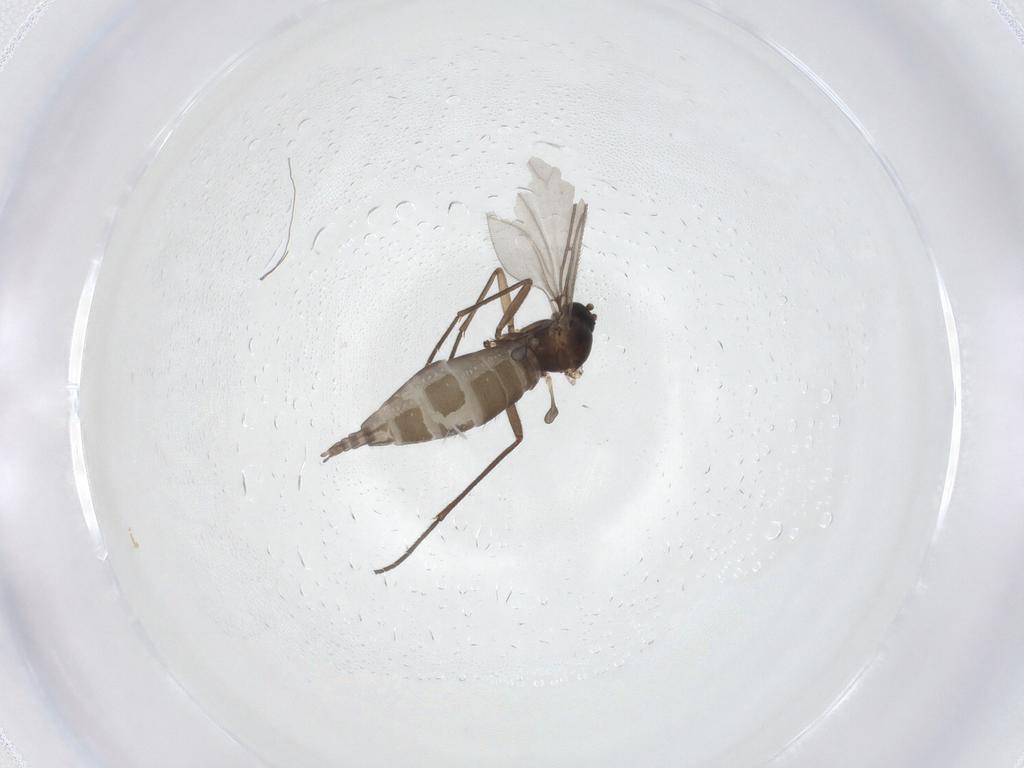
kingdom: Animalia
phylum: Arthropoda
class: Insecta
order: Diptera
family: Sciaridae
